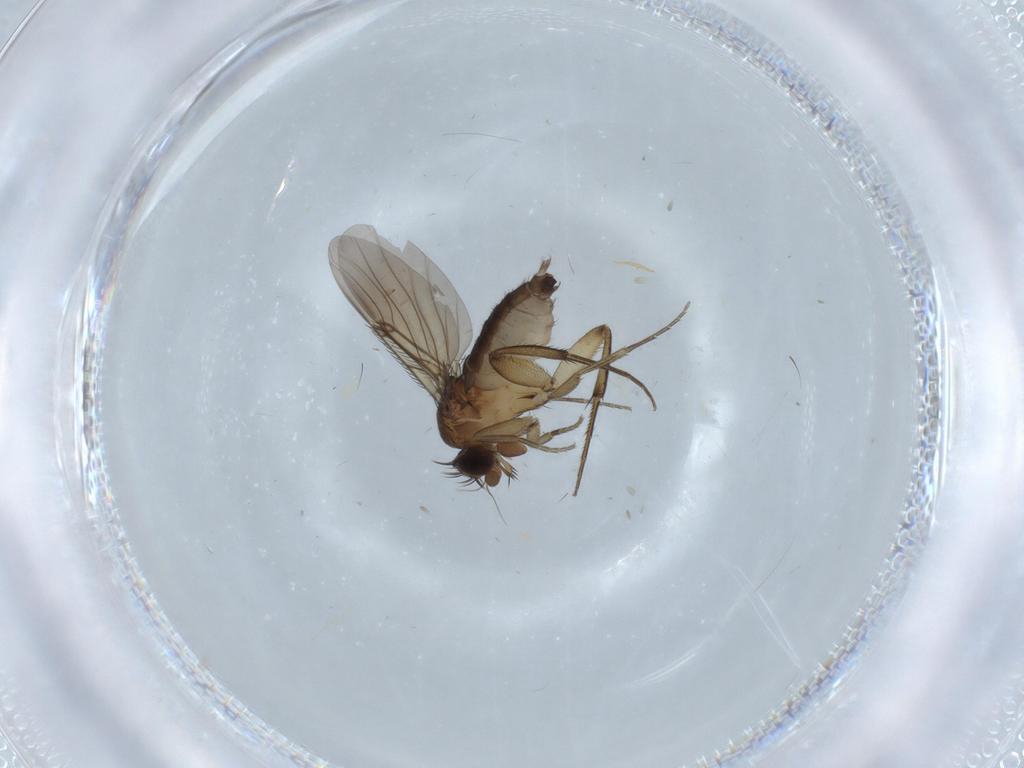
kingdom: Animalia
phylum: Arthropoda
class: Insecta
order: Diptera
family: Phoridae
